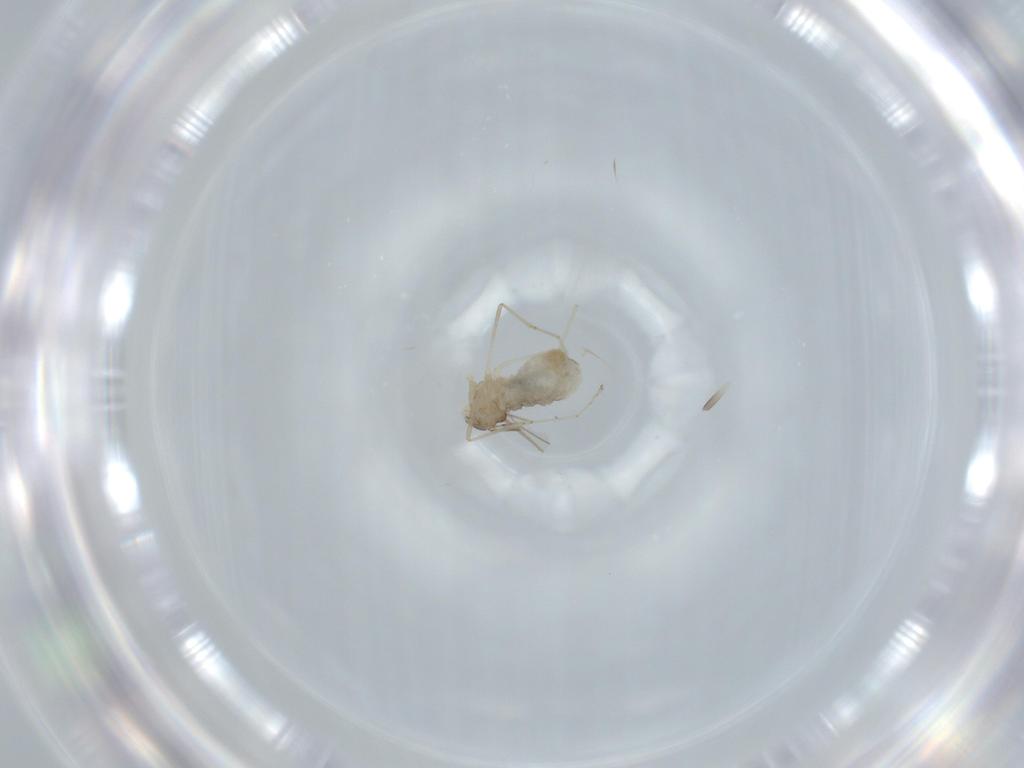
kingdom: Animalia
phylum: Arthropoda
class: Insecta
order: Diptera
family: Cecidomyiidae
